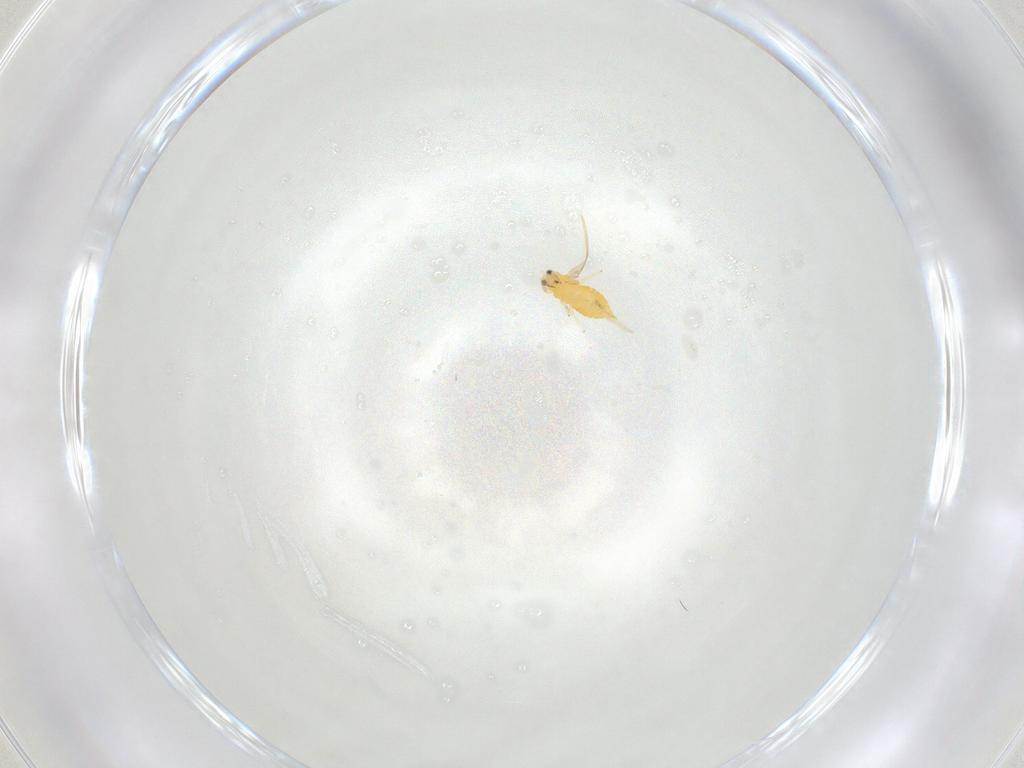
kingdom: Animalia
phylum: Arthropoda
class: Insecta
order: Thysanoptera
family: Thripidae
